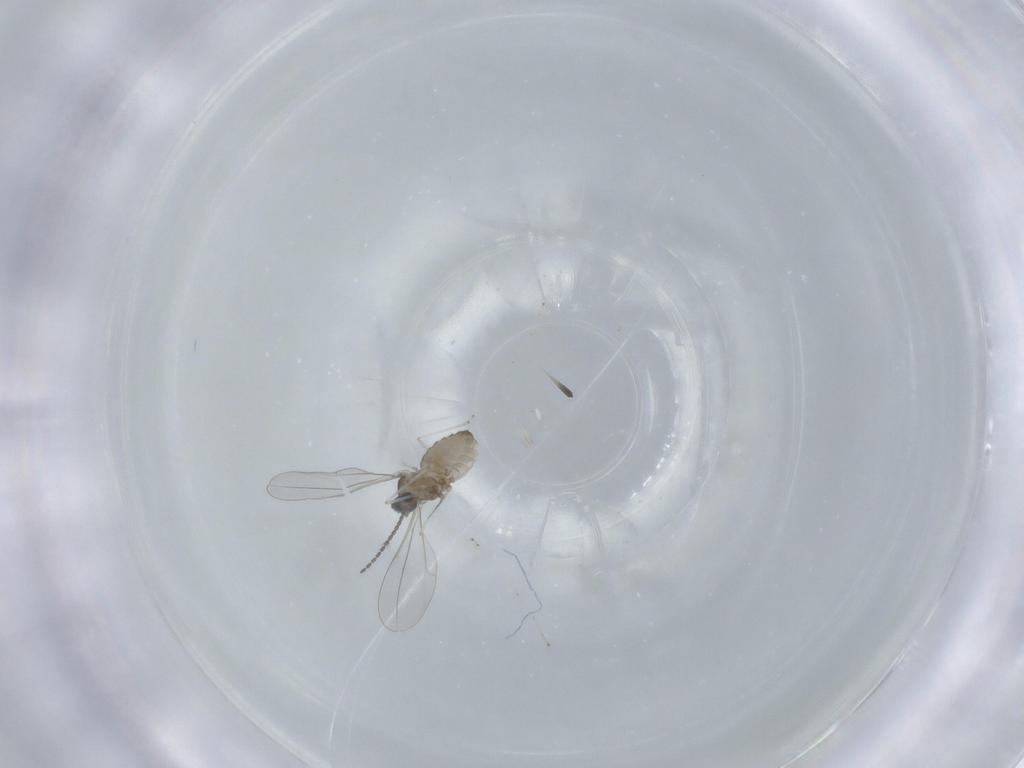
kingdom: Animalia
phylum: Arthropoda
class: Insecta
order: Diptera
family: Cecidomyiidae
